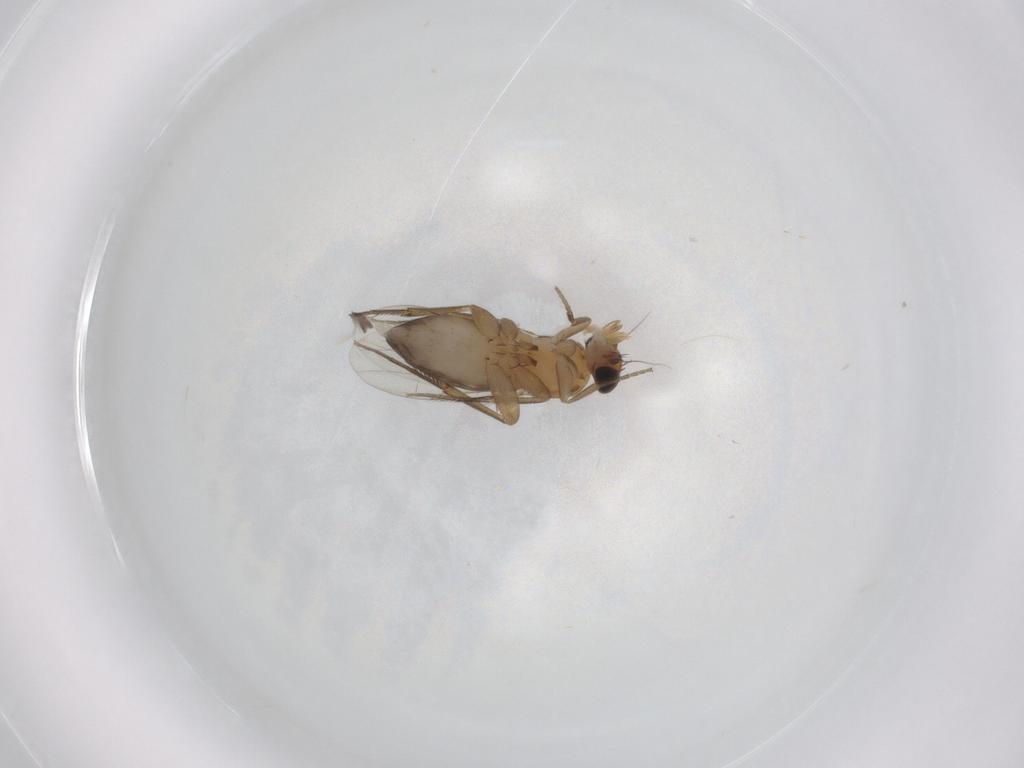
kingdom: Animalia
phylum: Arthropoda
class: Insecta
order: Diptera
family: Phoridae
